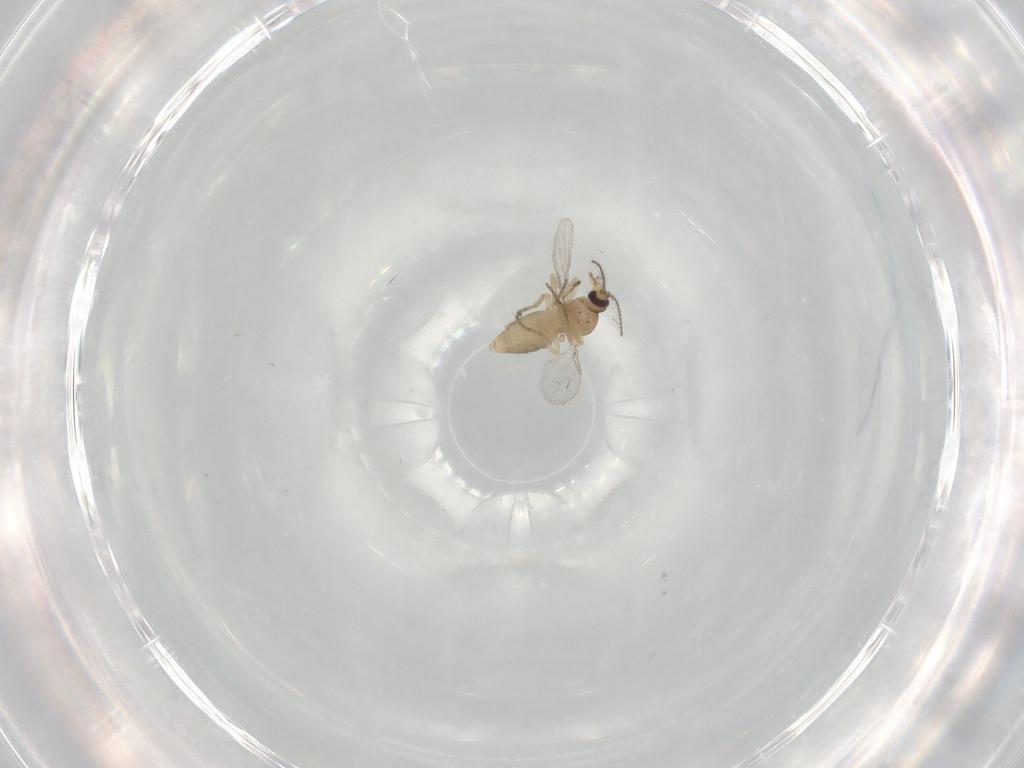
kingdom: Animalia
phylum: Arthropoda
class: Insecta
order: Diptera
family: Ceratopogonidae
